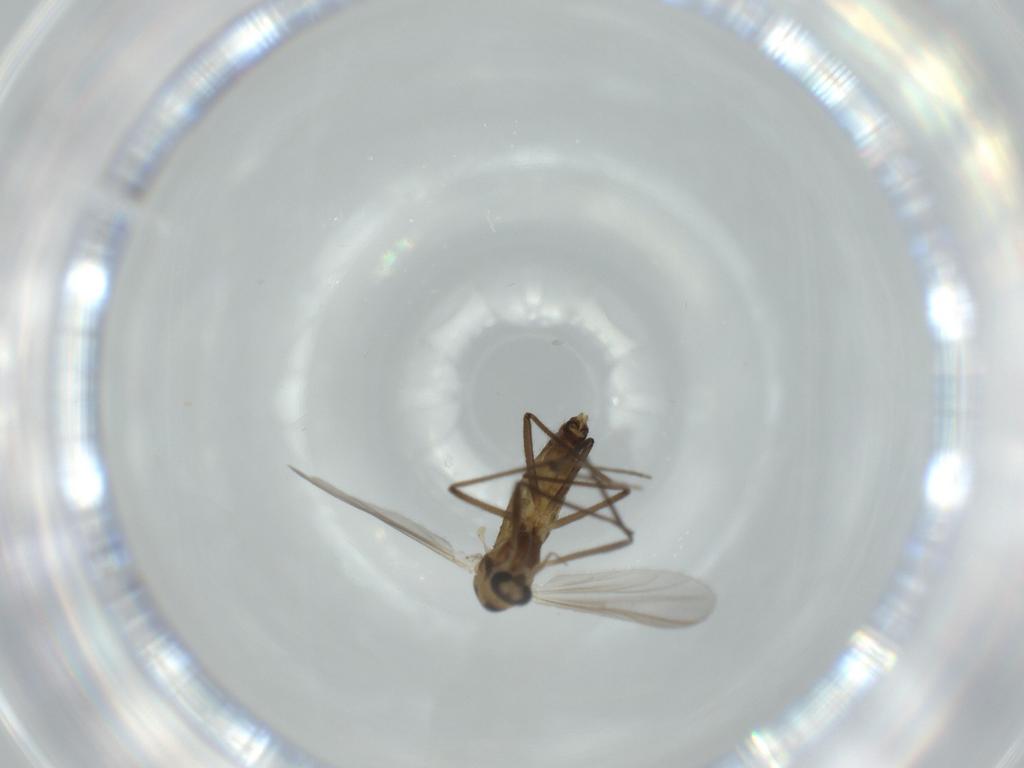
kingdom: Animalia
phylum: Arthropoda
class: Insecta
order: Diptera
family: Chironomidae
